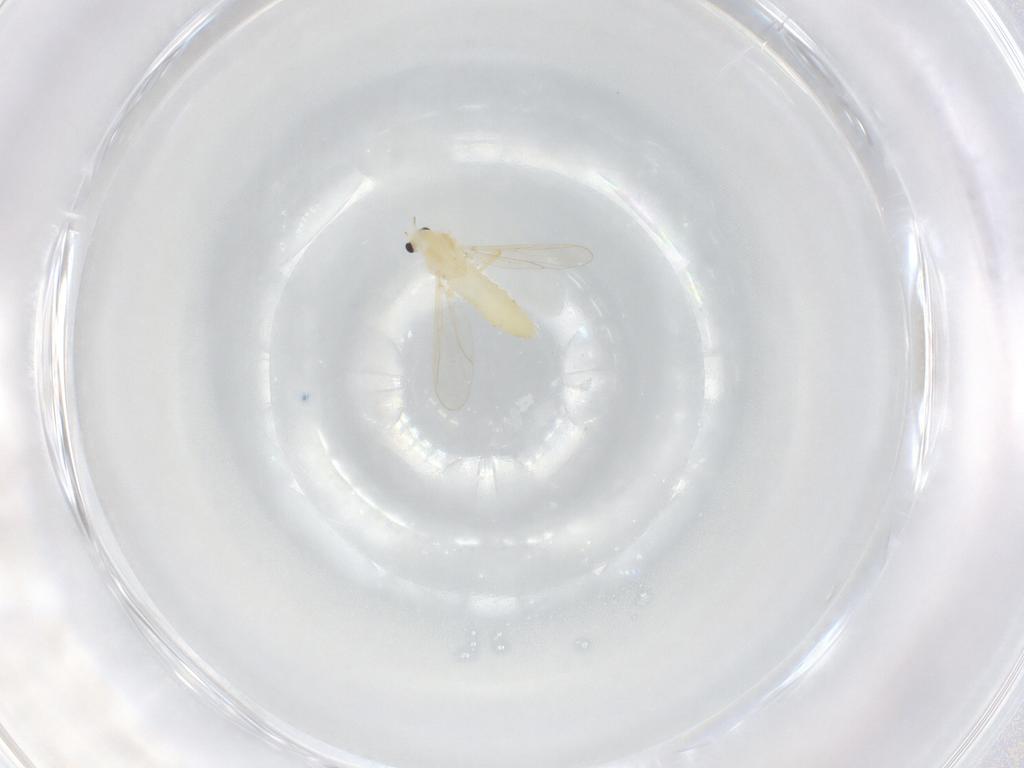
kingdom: Animalia
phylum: Arthropoda
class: Insecta
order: Diptera
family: Chironomidae
